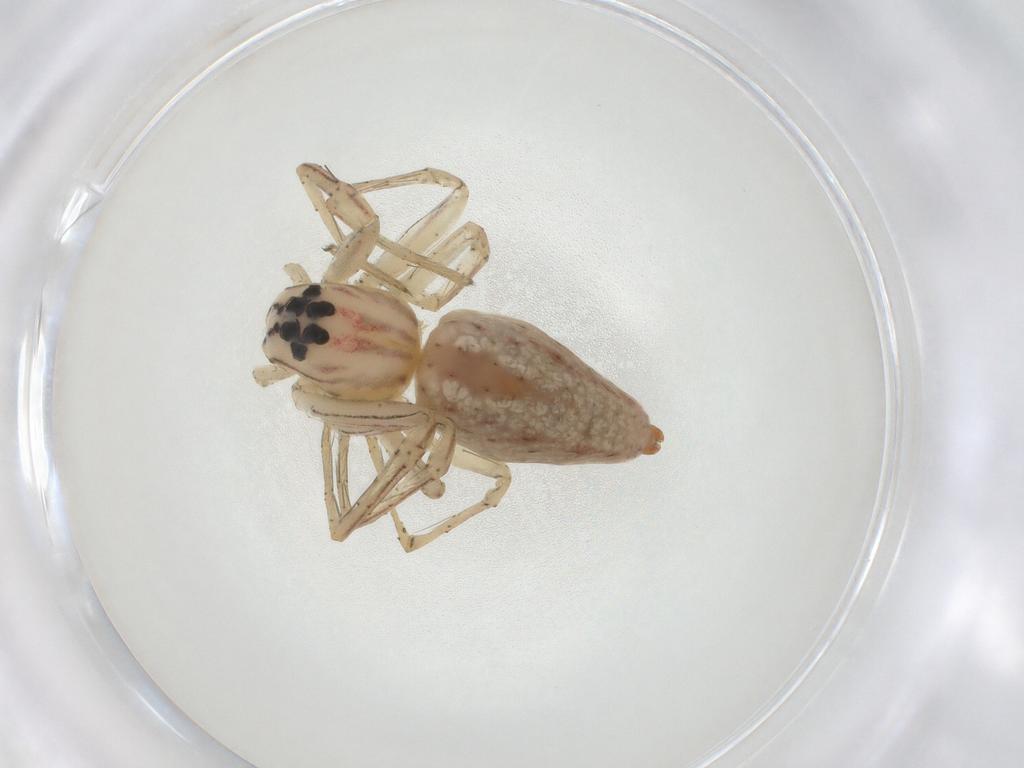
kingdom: Animalia
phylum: Arthropoda
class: Arachnida
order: Araneae
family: Oxyopidae
